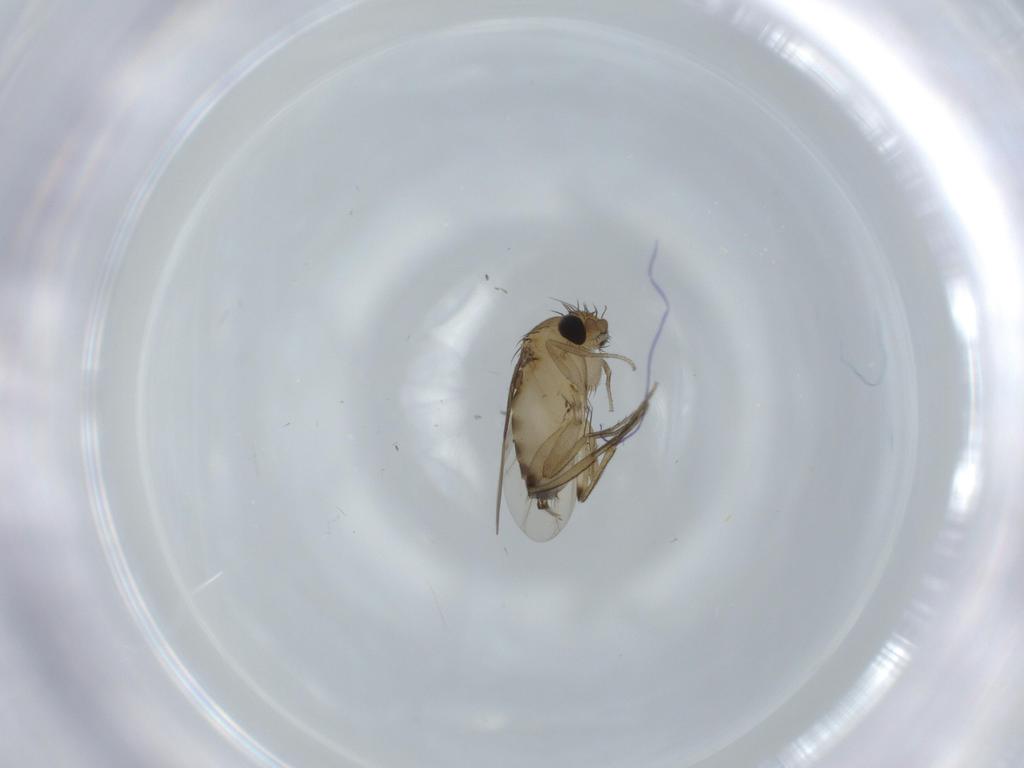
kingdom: Animalia
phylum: Arthropoda
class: Insecta
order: Diptera
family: Phoridae
